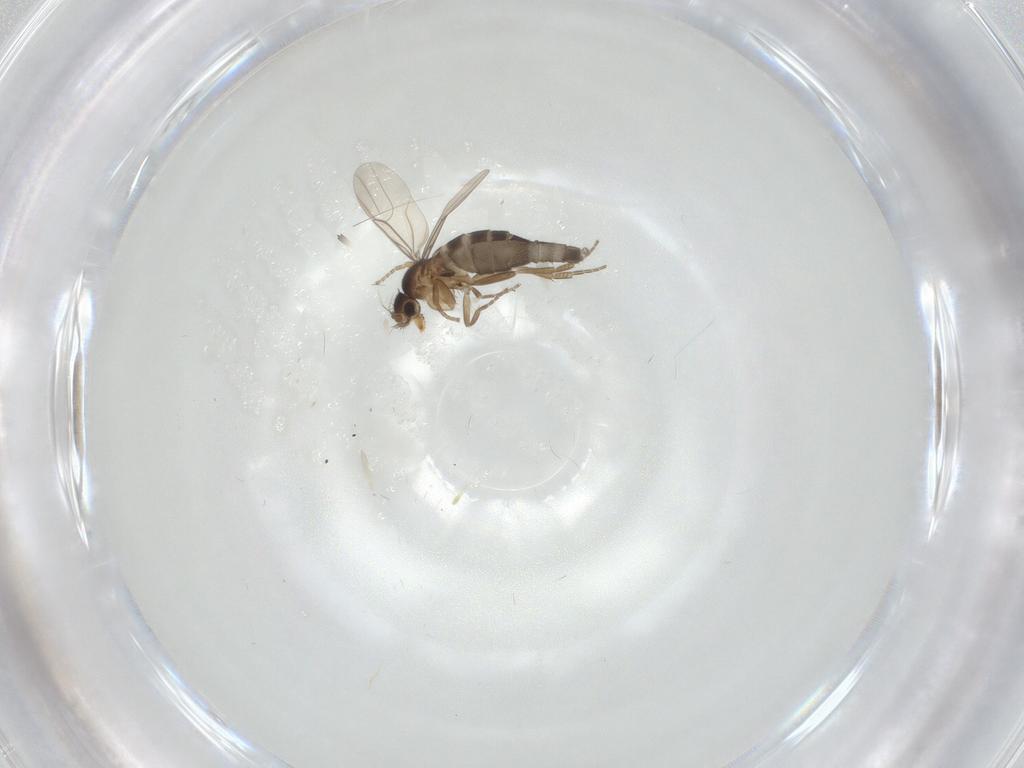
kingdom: Animalia
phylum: Arthropoda
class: Insecta
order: Diptera
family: Phoridae
